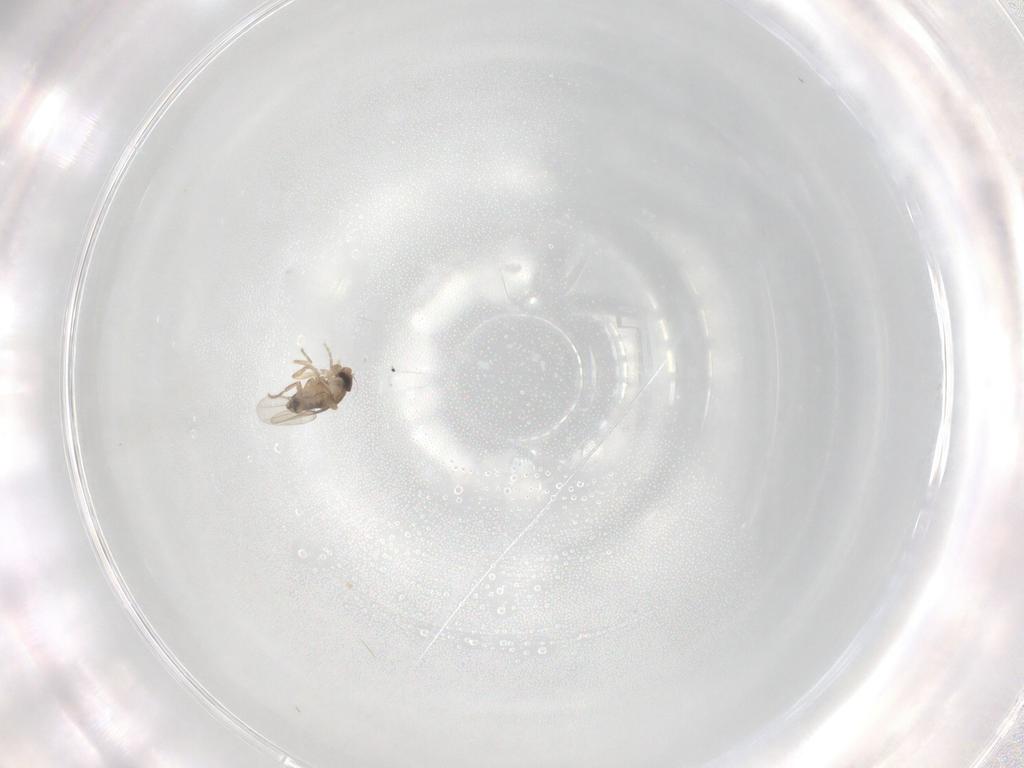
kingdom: Animalia
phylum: Arthropoda
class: Insecta
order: Diptera
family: Phoridae
